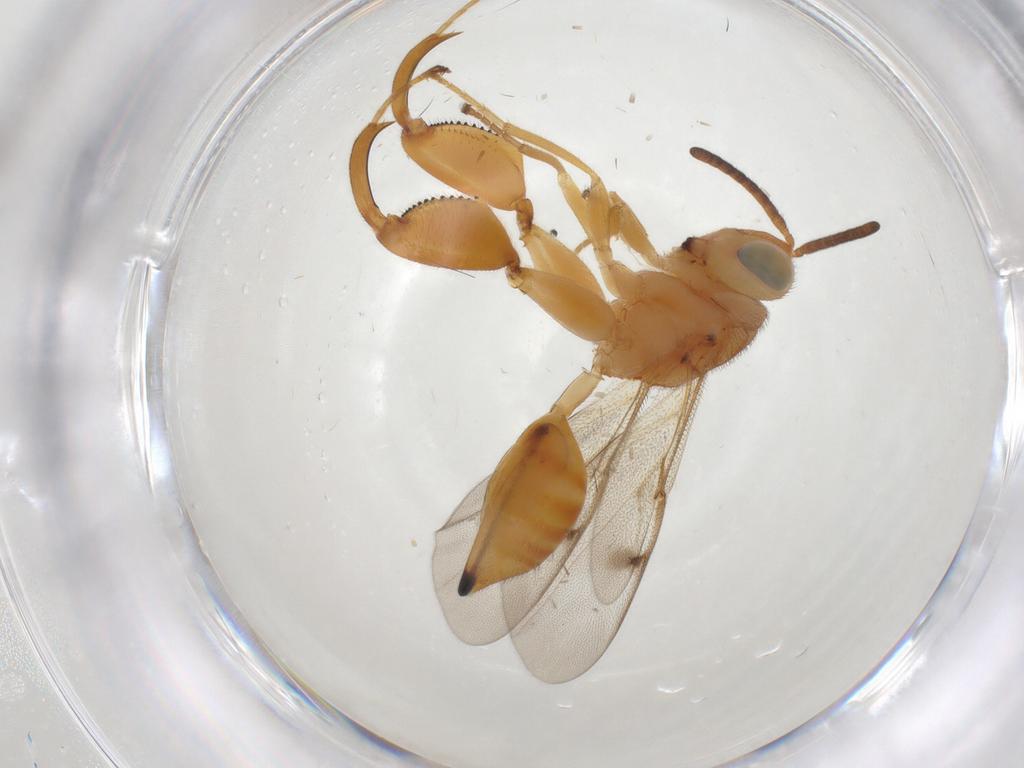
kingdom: Animalia
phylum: Arthropoda
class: Insecta
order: Hymenoptera
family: Chalcididae
